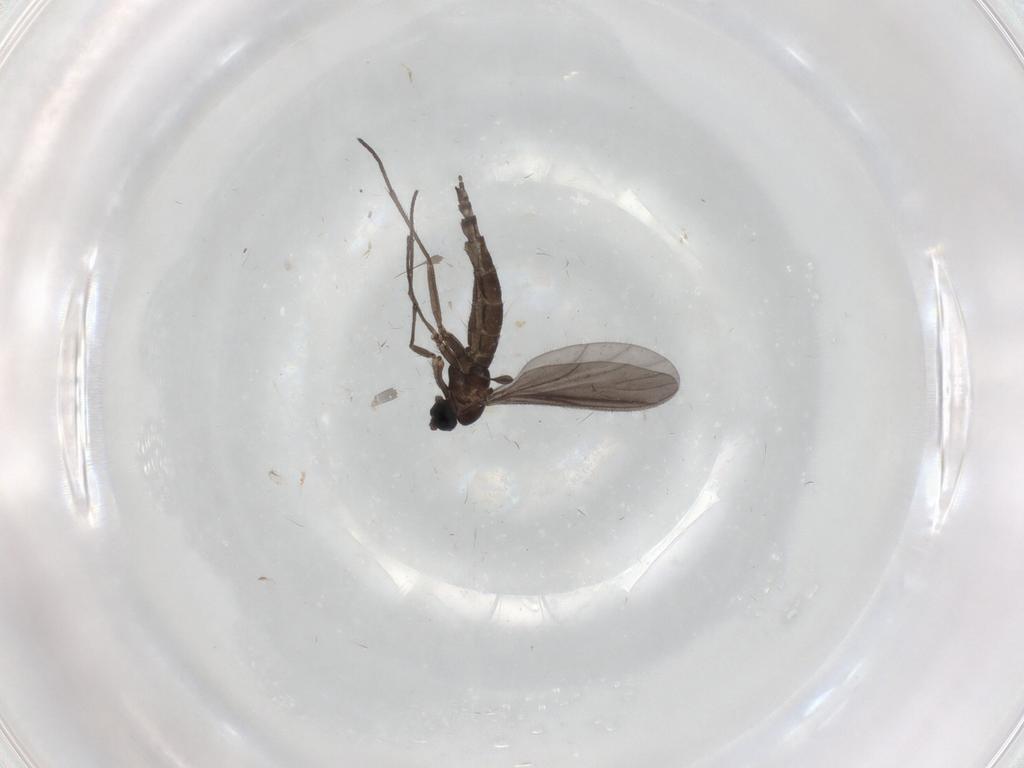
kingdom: Animalia
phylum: Arthropoda
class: Insecta
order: Diptera
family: Sciaridae
